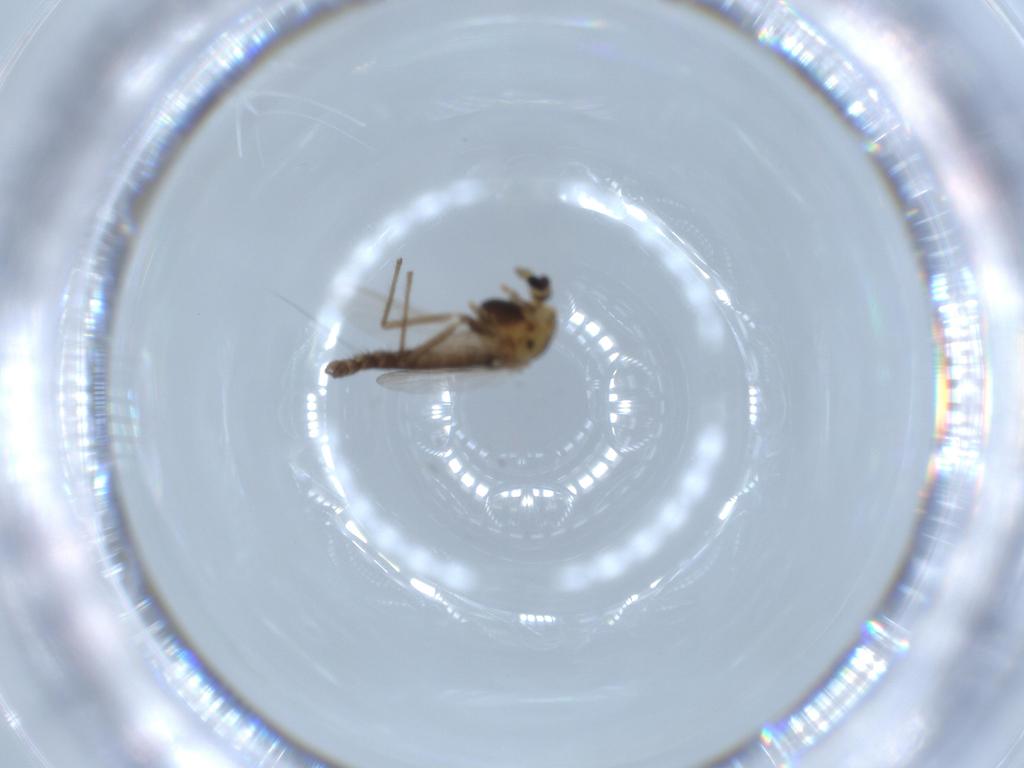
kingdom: Animalia
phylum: Arthropoda
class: Insecta
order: Diptera
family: Chironomidae
